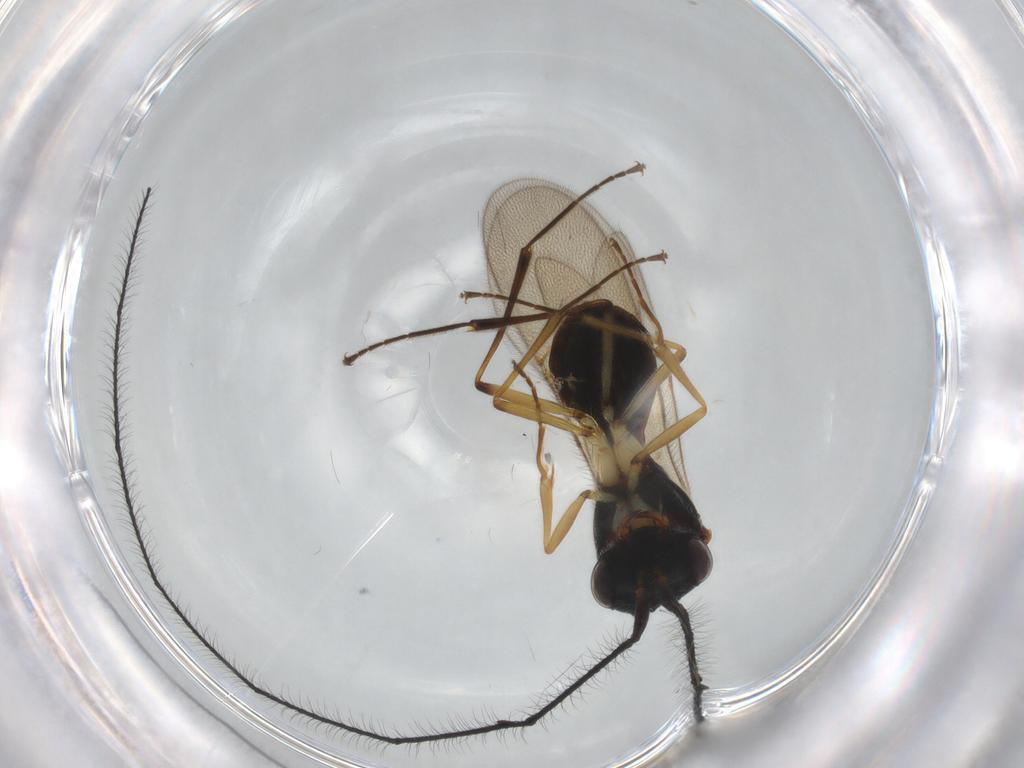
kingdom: Animalia
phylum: Arthropoda
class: Insecta
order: Hymenoptera
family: Scelionidae
